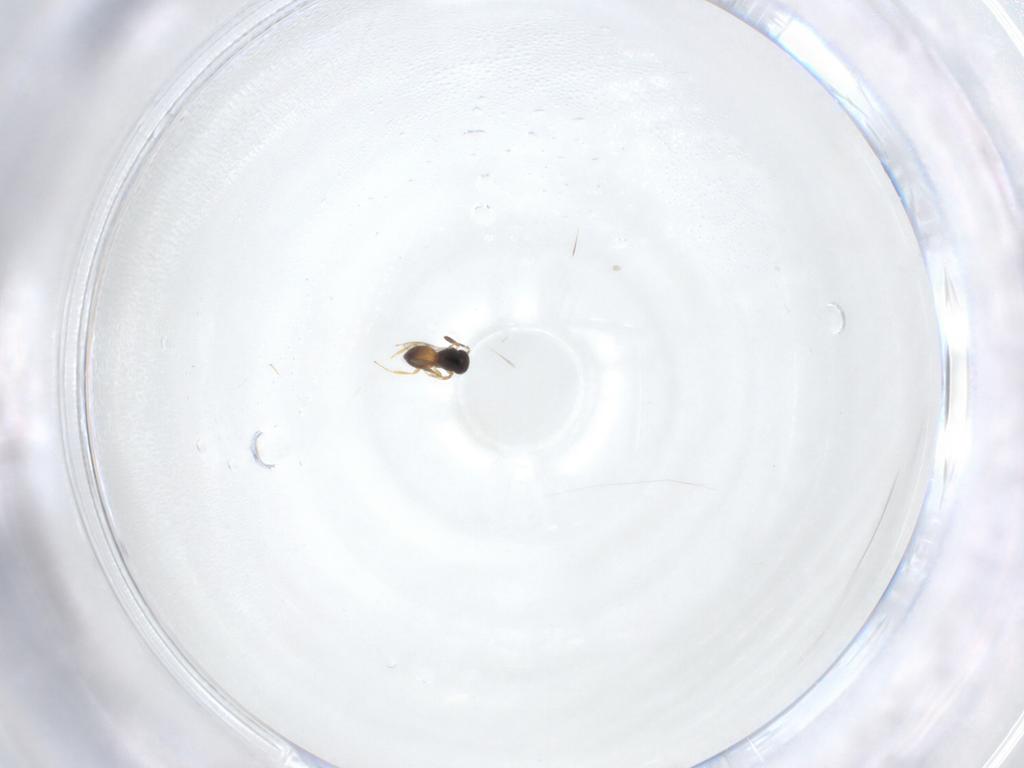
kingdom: Animalia
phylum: Arthropoda
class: Insecta
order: Hymenoptera
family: Scelionidae
